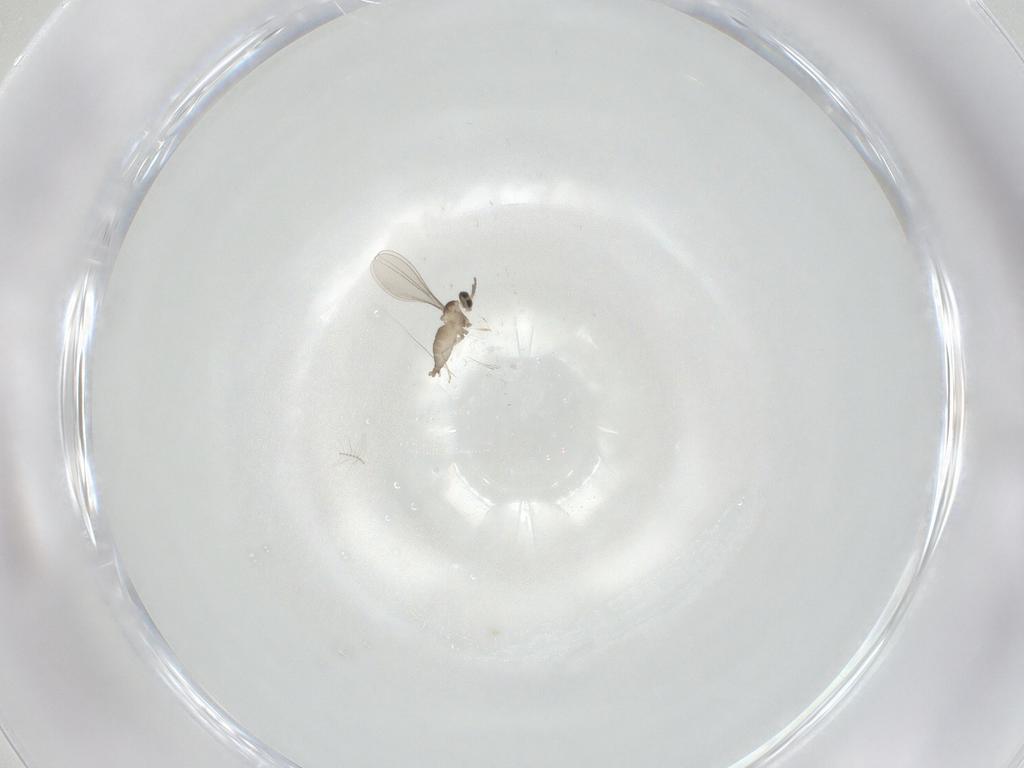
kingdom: Animalia
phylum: Arthropoda
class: Insecta
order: Diptera
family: Cecidomyiidae
